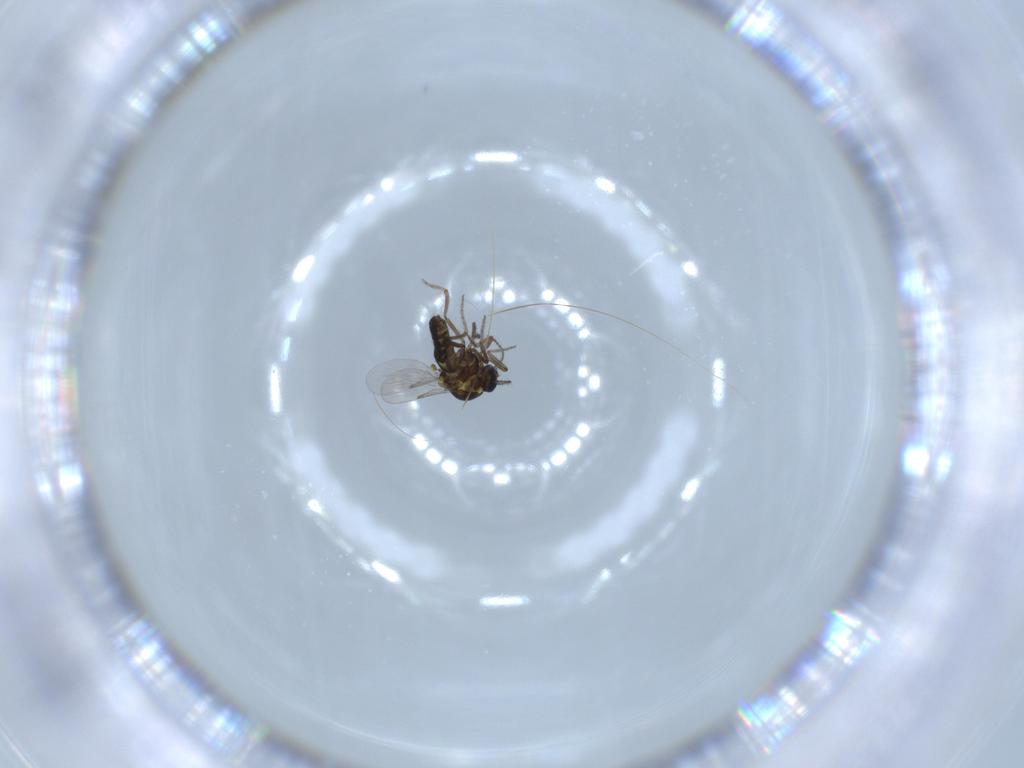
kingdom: Animalia
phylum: Arthropoda
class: Insecta
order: Diptera
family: Ceratopogonidae
